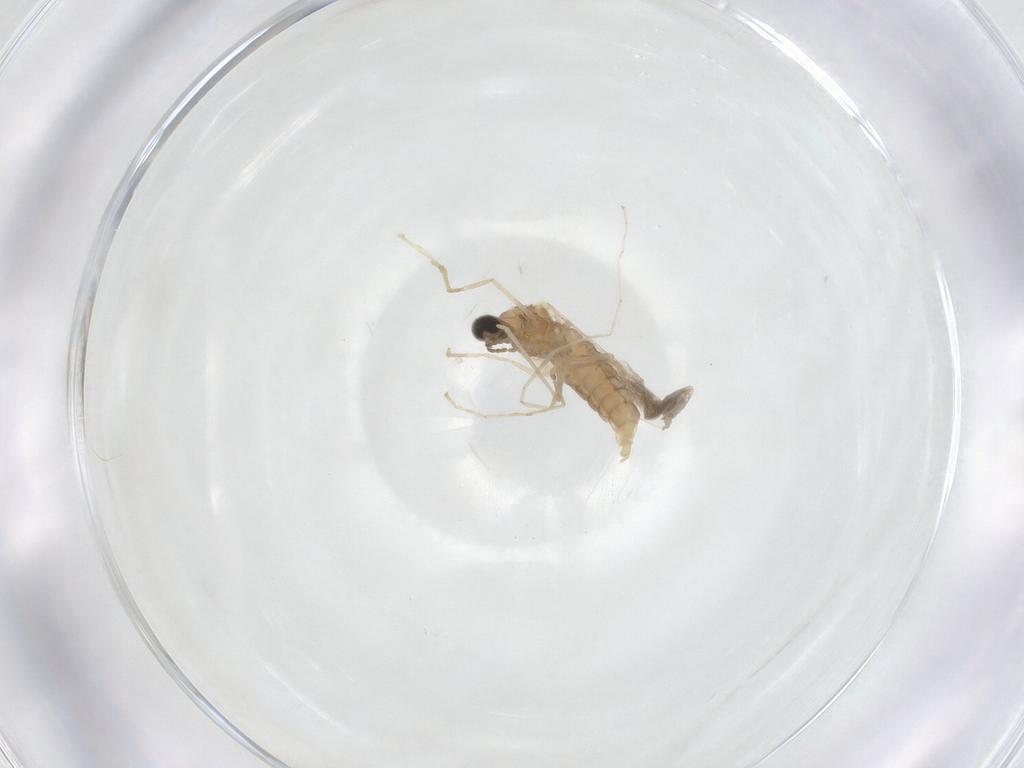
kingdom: Animalia
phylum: Arthropoda
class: Insecta
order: Diptera
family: Cecidomyiidae
